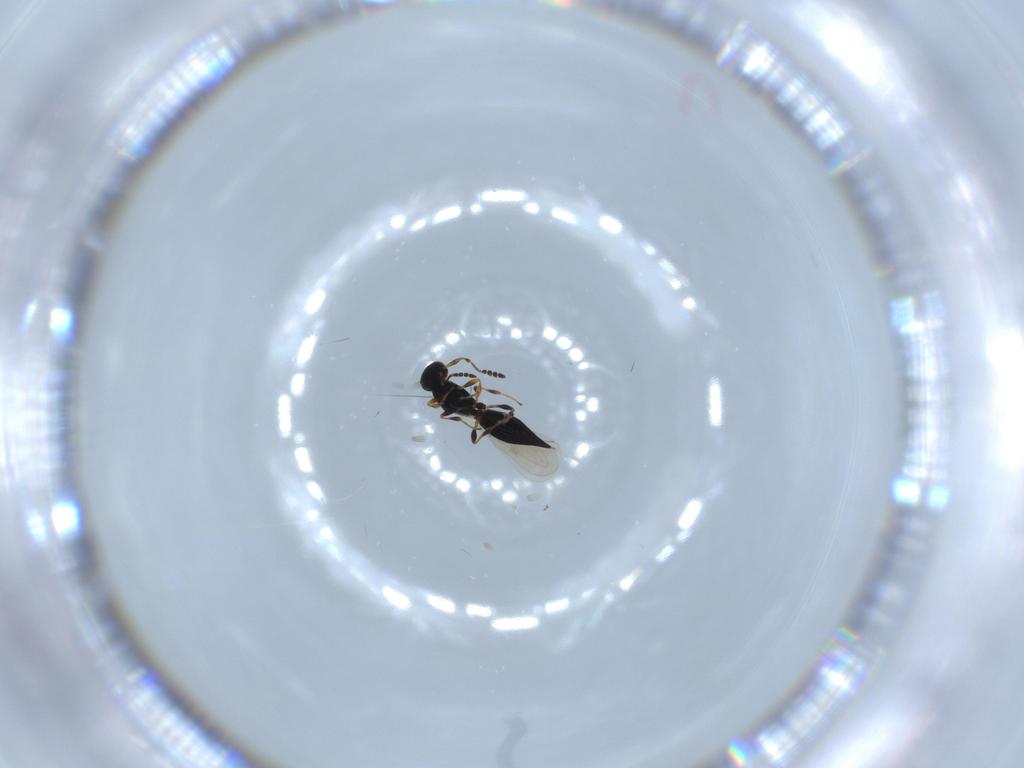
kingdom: Animalia
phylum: Arthropoda
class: Insecta
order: Hymenoptera
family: Platygastridae
